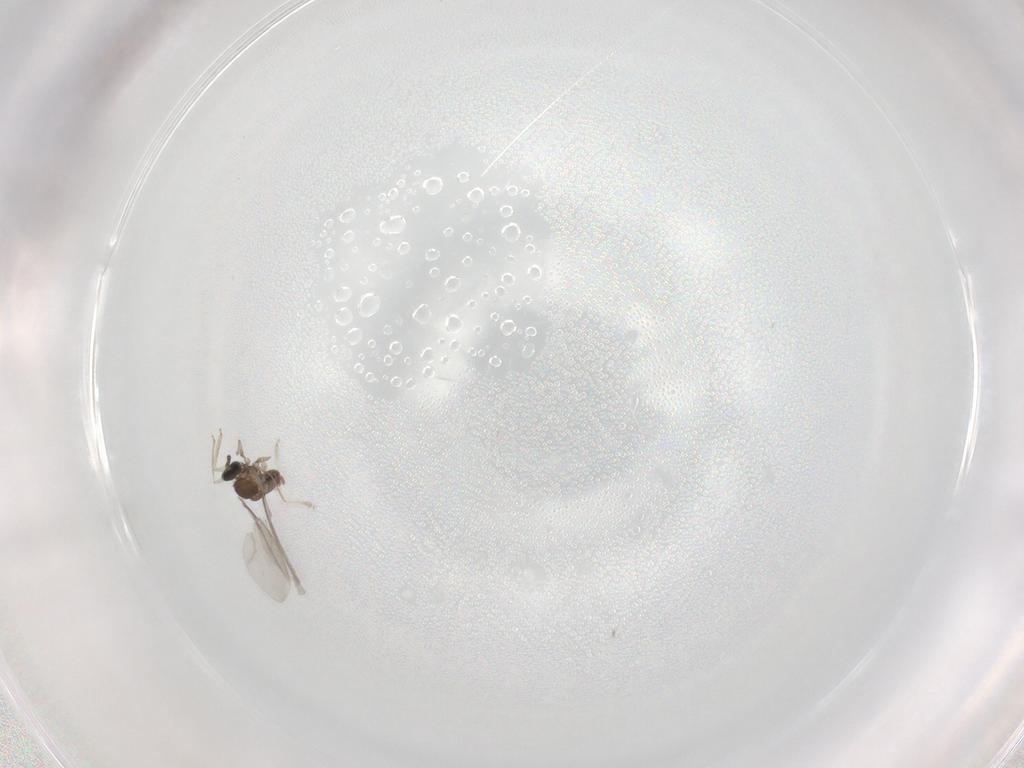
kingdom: Animalia
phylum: Arthropoda
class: Insecta
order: Diptera
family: Cecidomyiidae
